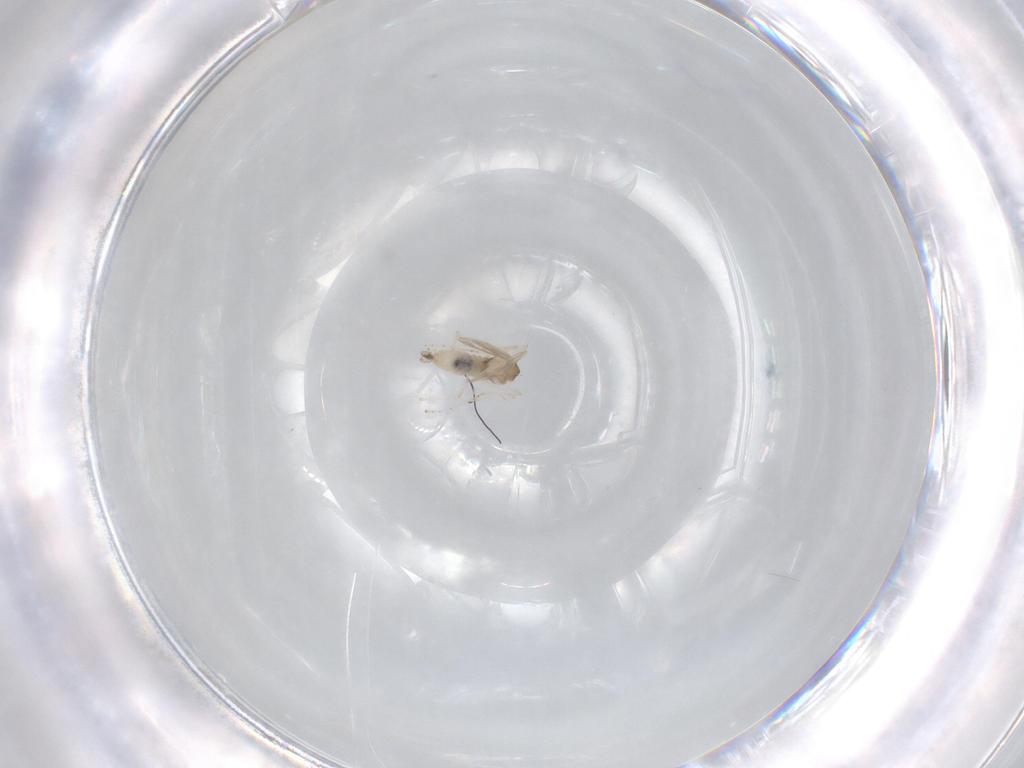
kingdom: Animalia
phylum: Arthropoda
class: Insecta
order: Diptera
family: Cecidomyiidae
